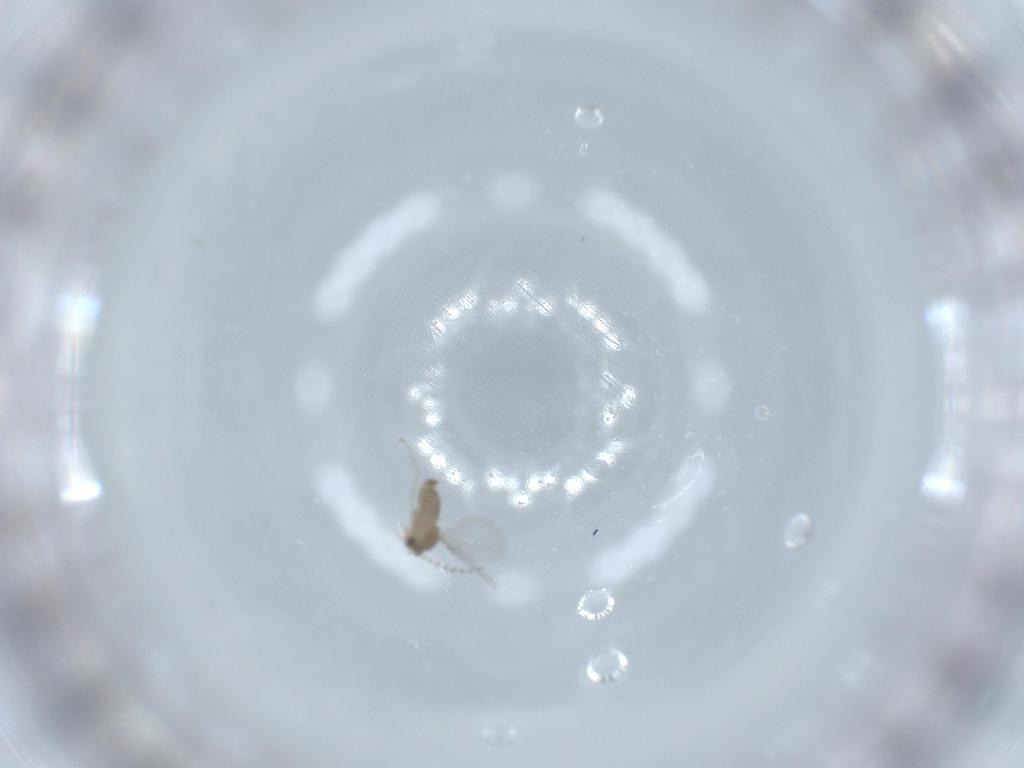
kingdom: Animalia
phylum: Arthropoda
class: Insecta
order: Diptera
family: Cecidomyiidae
